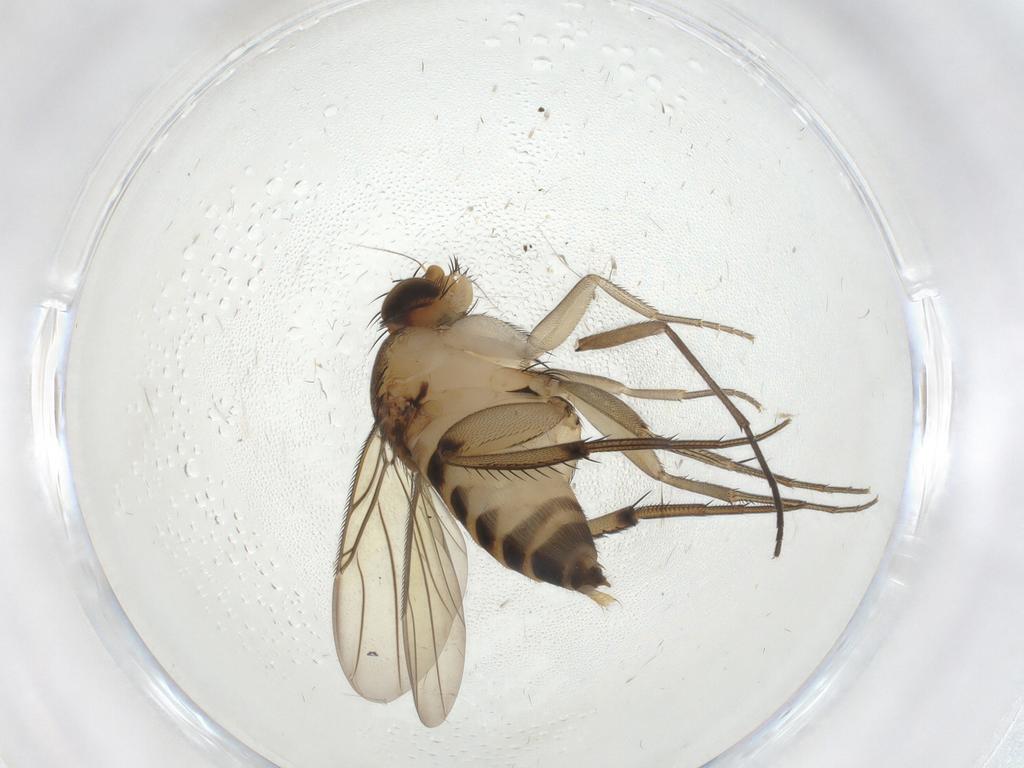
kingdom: Animalia
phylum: Arthropoda
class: Insecta
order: Diptera
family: Phoridae
